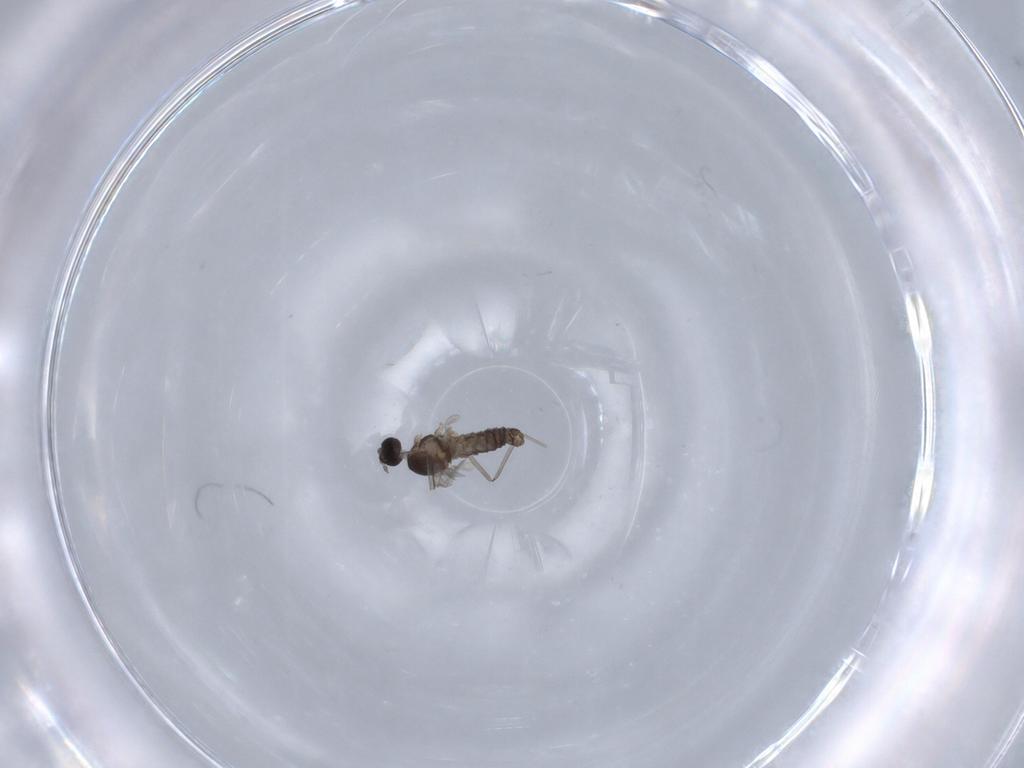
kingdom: Animalia
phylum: Arthropoda
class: Insecta
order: Diptera
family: Cecidomyiidae
